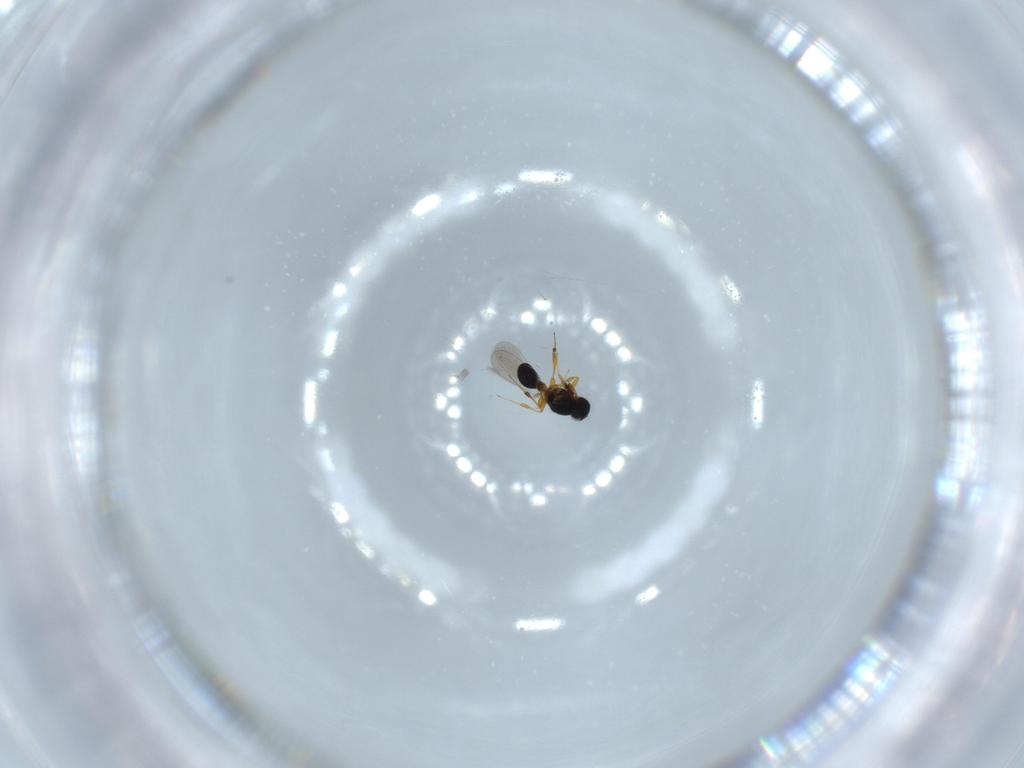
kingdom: Animalia
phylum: Arthropoda
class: Insecta
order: Hymenoptera
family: Platygastridae
